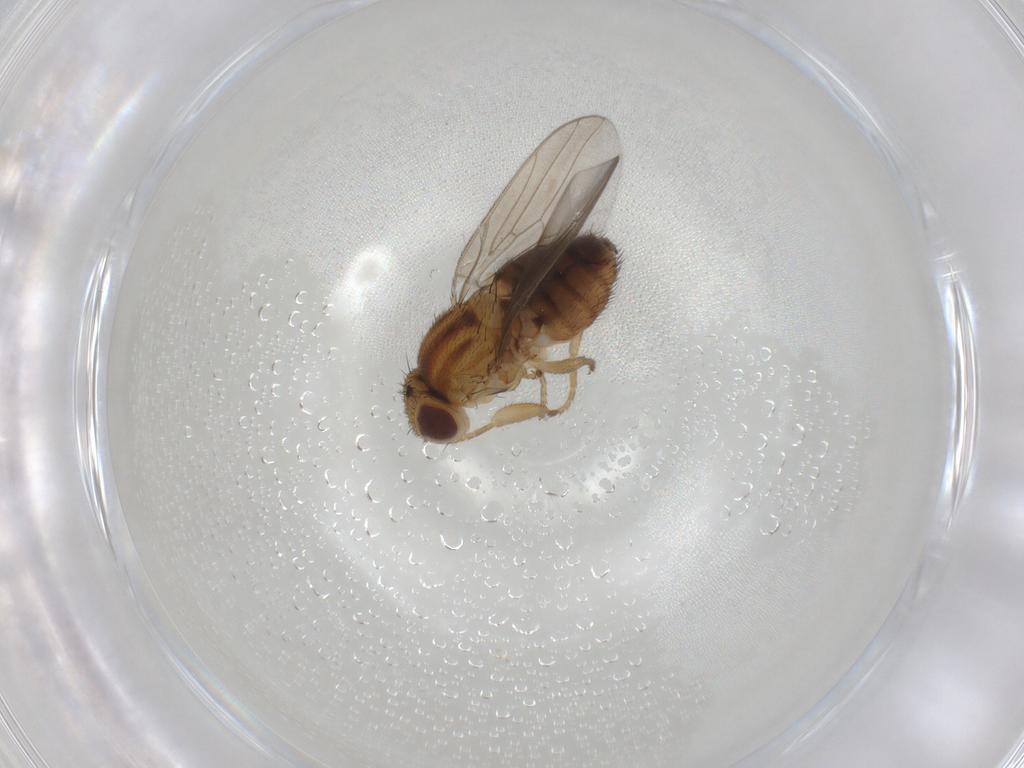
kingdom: Animalia
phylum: Arthropoda
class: Insecta
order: Diptera
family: Chloropidae
